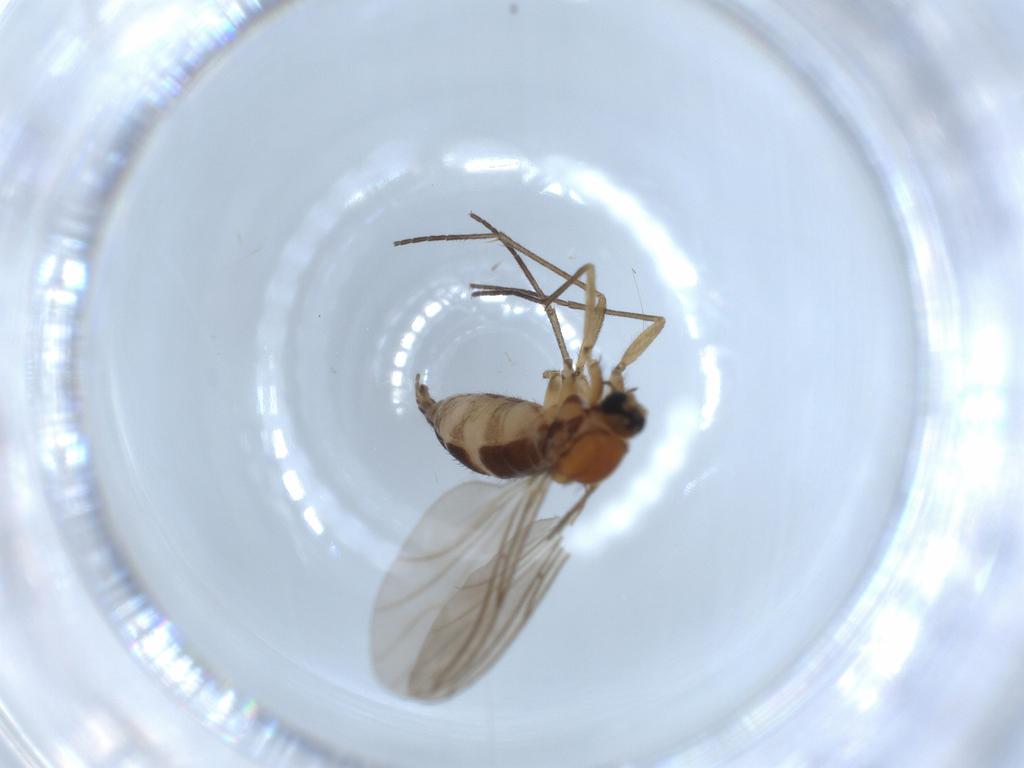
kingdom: Animalia
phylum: Arthropoda
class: Insecta
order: Diptera
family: Sciaridae
